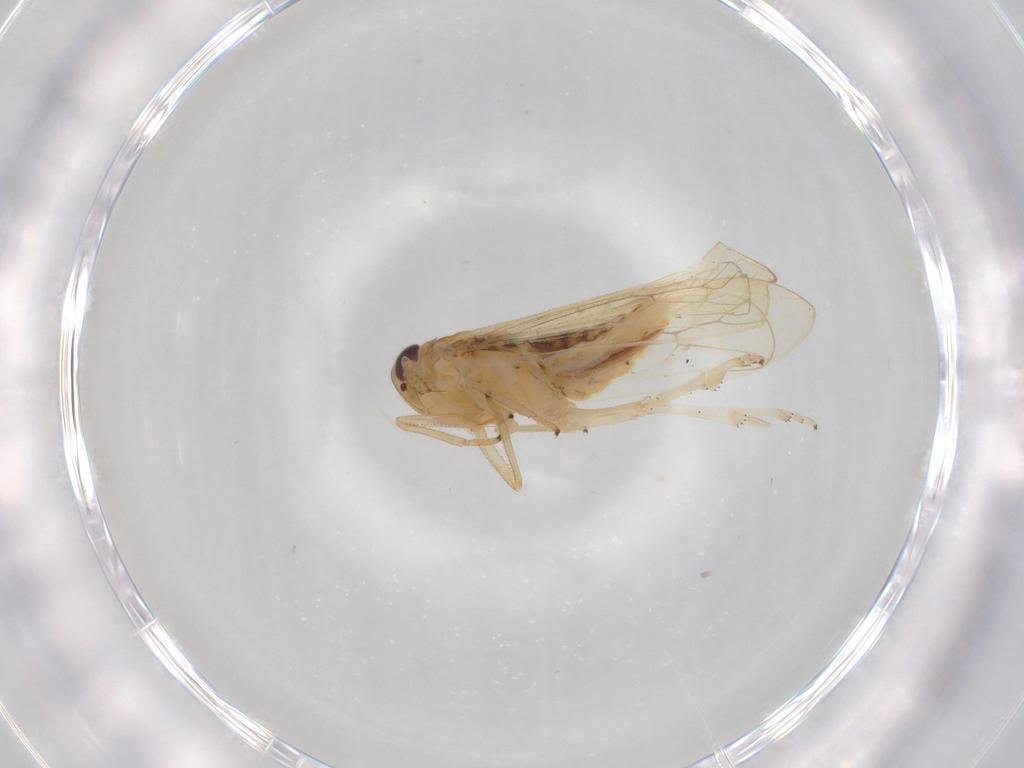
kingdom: Animalia
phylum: Arthropoda
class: Insecta
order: Hemiptera
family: Delphacidae
